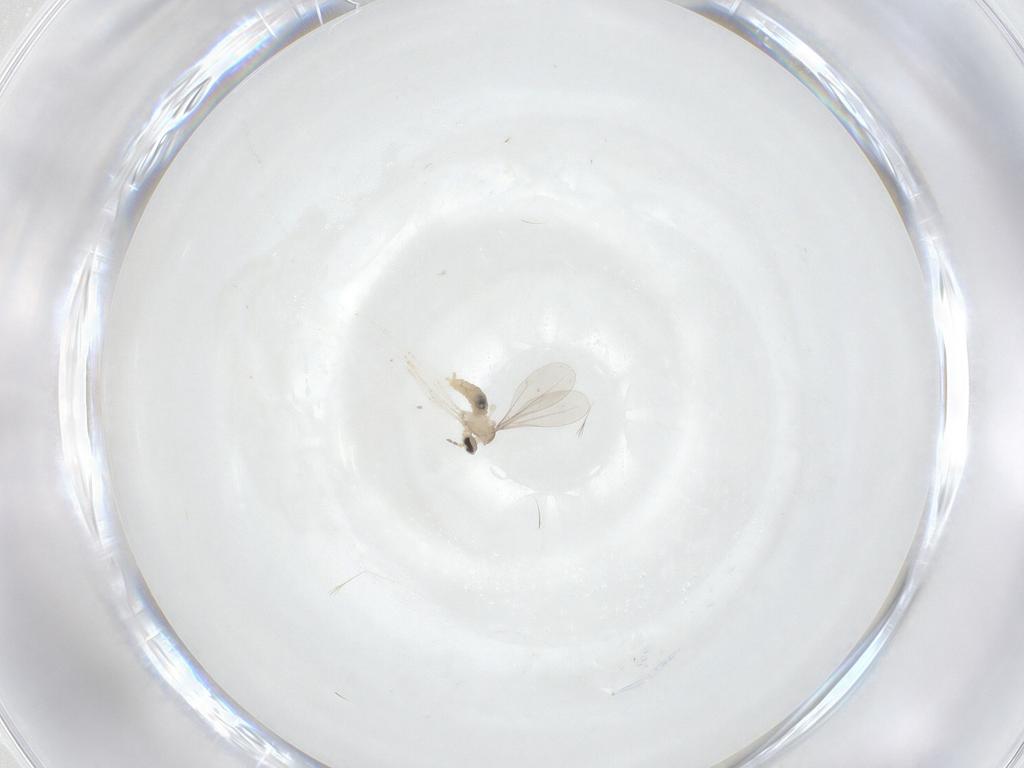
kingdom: Animalia
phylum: Arthropoda
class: Insecta
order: Diptera
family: Cecidomyiidae
